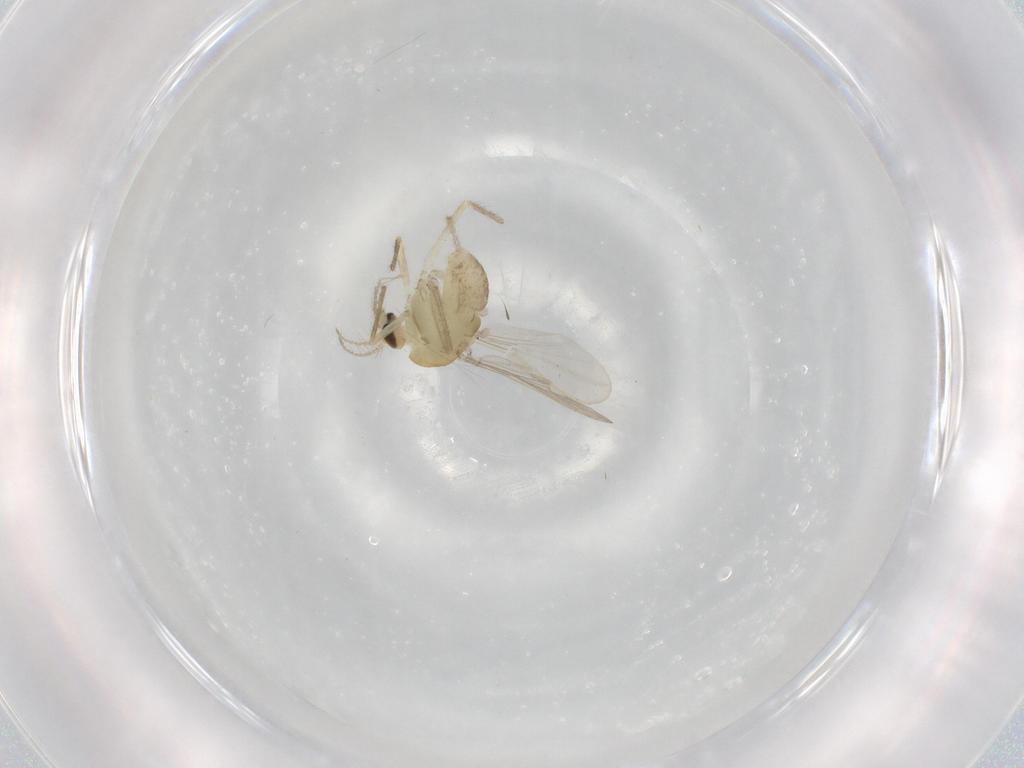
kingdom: Animalia
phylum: Arthropoda
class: Insecta
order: Diptera
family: Chironomidae
